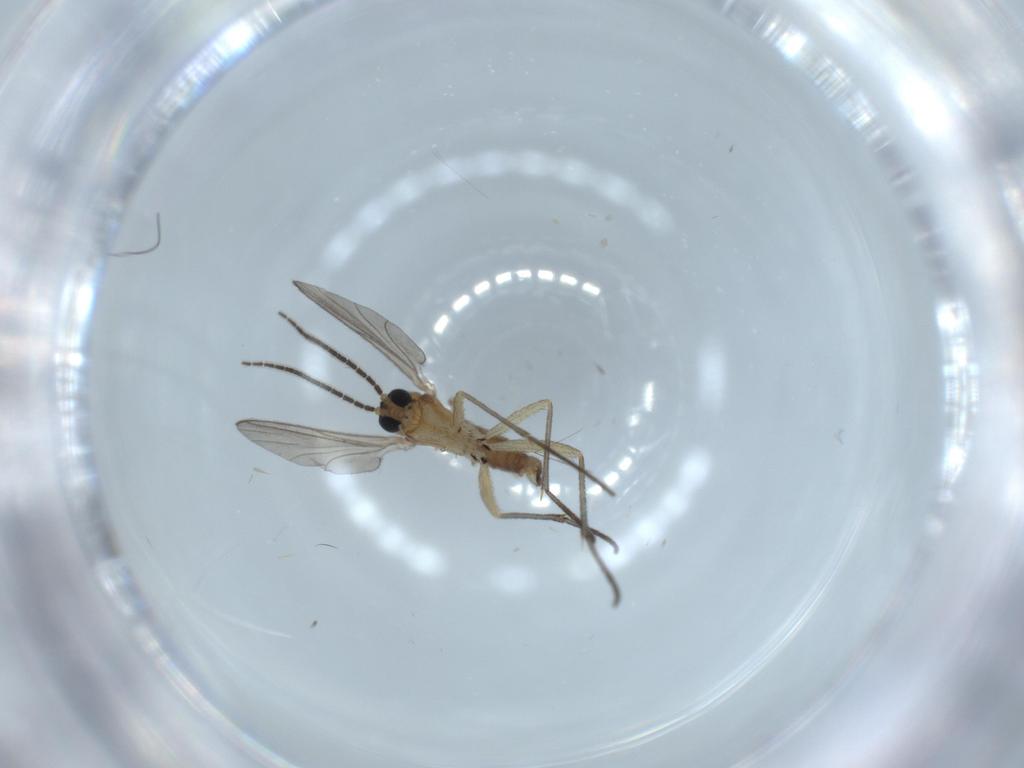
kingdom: Animalia
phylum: Arthropoda
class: Insecta
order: Diptera
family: Sciaridae
